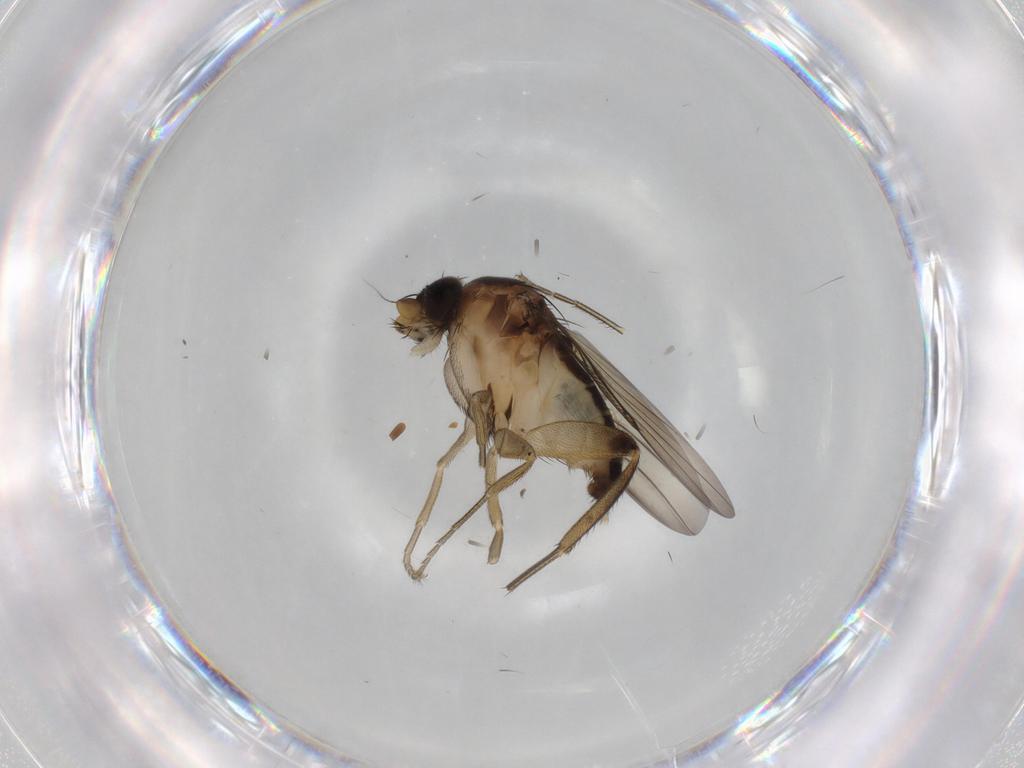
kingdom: Animalia
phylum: Arthropoda
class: Insecta
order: Diptera
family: Phoridae
